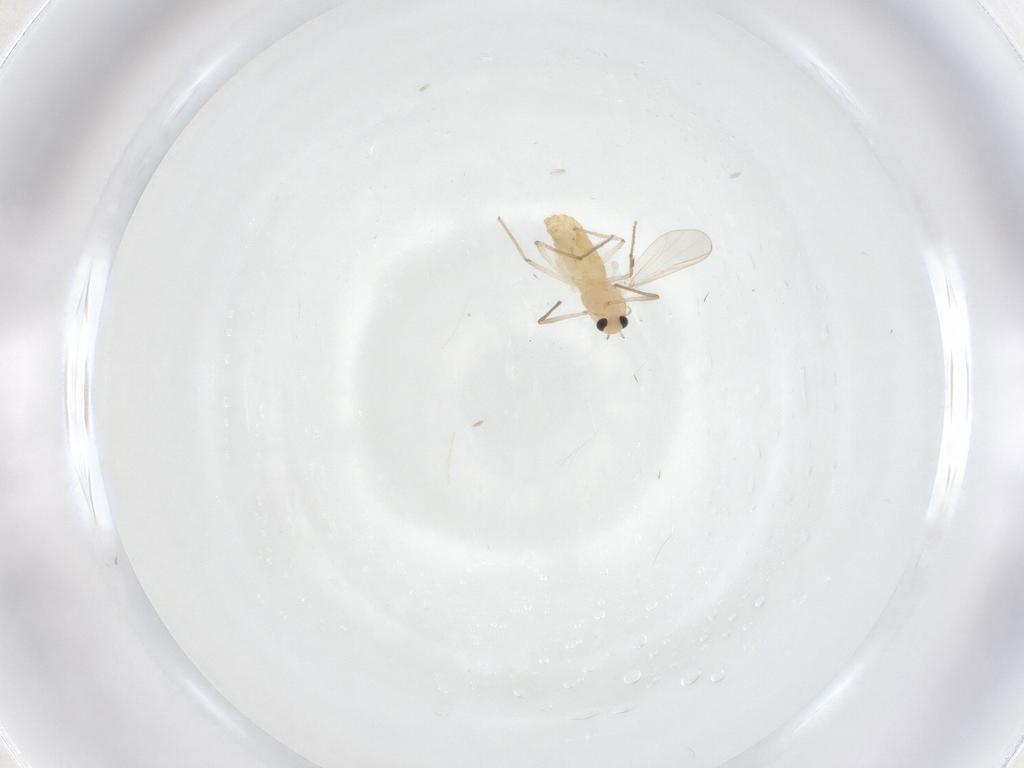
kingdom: Animalia
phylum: Arthropoda
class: Insecta
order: Diptera
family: Chironomidae
